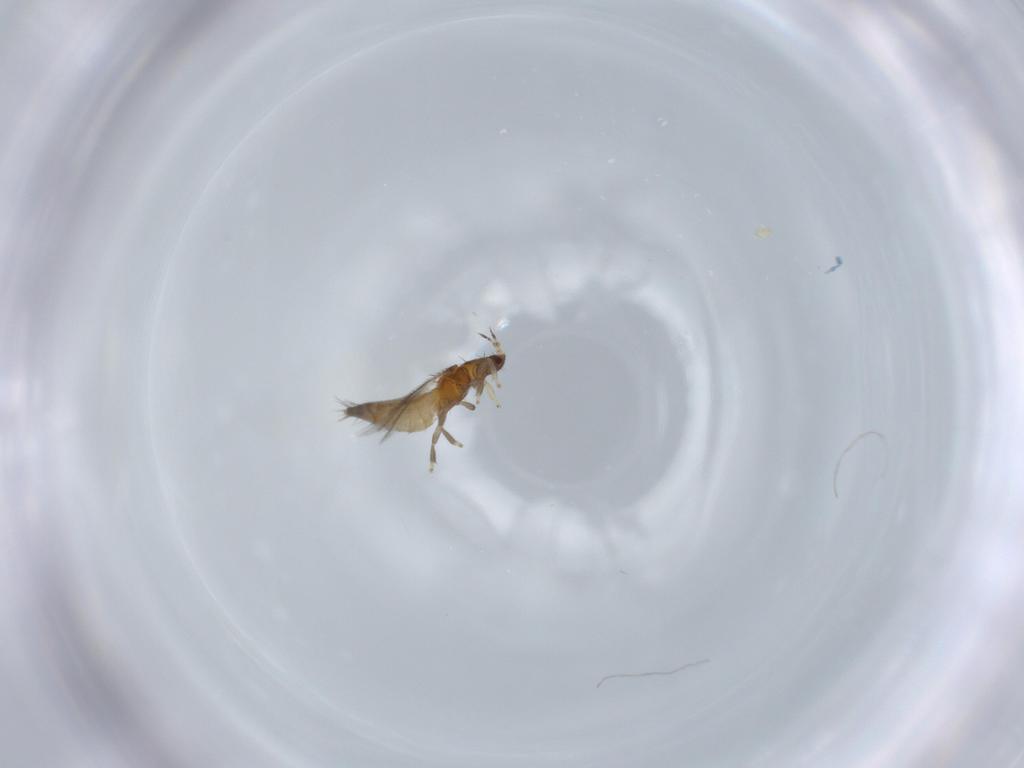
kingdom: Animalia
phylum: Arthropoda
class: Insecta
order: Thysanoptera
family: Thripidae
